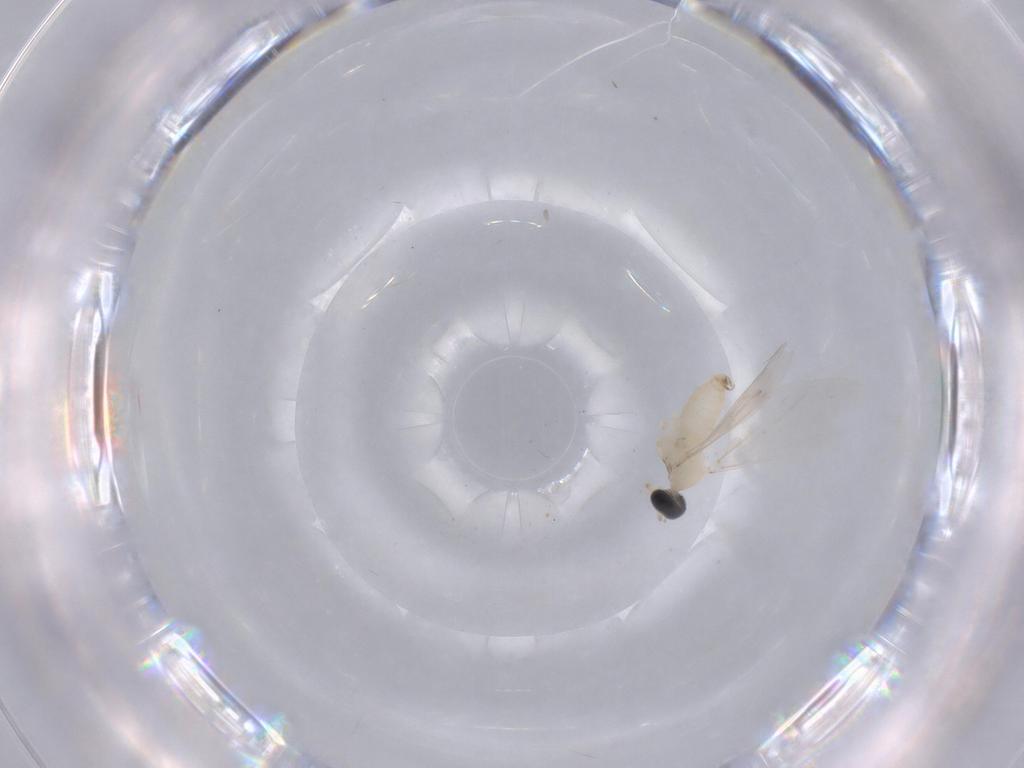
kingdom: Animalia
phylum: Arthropoda
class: Insecta
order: Diptera
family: Cecidomyiidae
